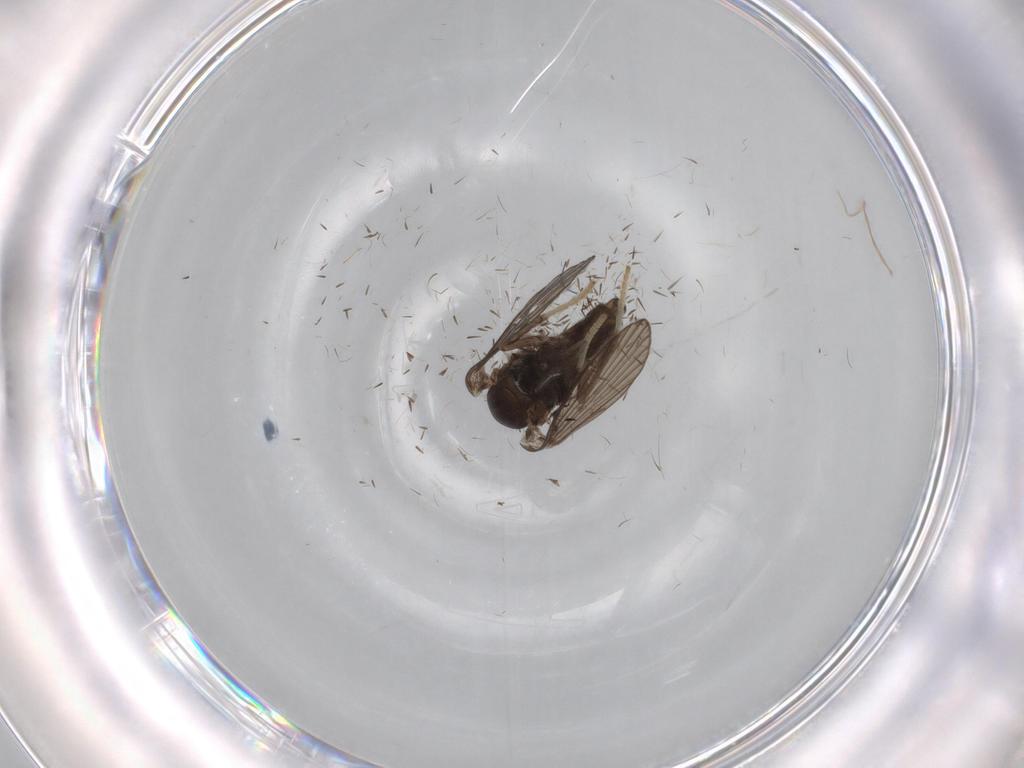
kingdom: Animalia
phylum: Arthropoda
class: Insecta
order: Diptera
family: Psychodidae
